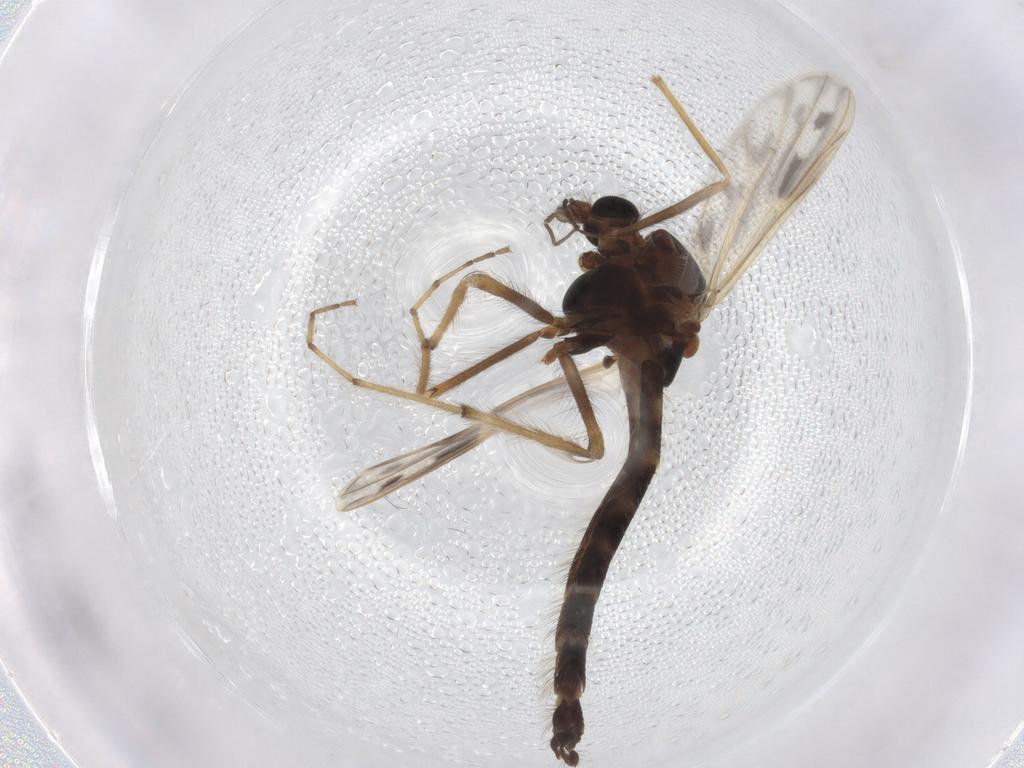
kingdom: Animalia
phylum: Arthropoda
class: Insecta
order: Diptera
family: Chironomidae
